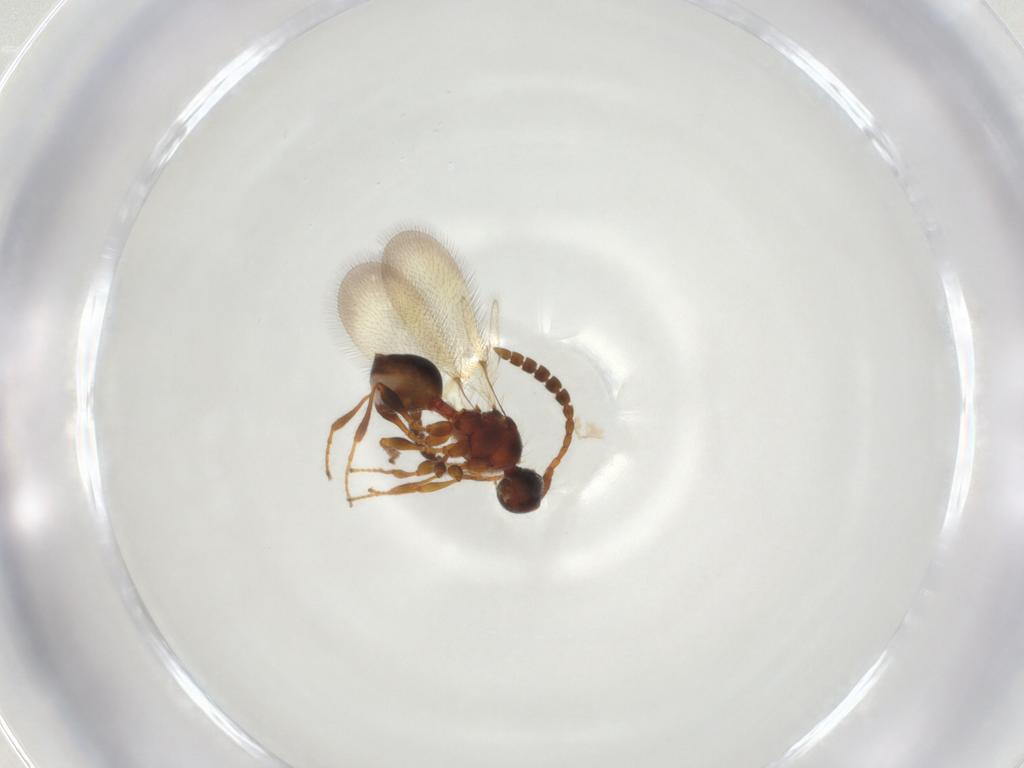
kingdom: Animalia
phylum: Arthropoda
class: Insecta
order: Hymenoptera
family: Diapriidae
